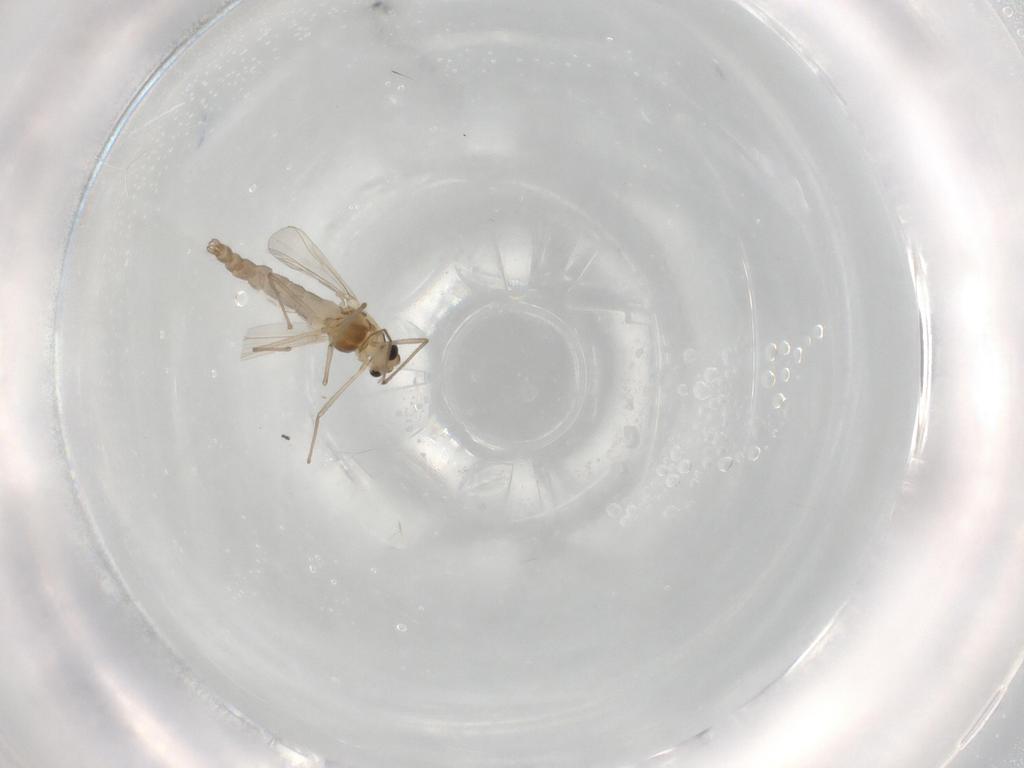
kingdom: Animalia
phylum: Arthropoda
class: Insecta
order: Diptera
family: Chironomidae
